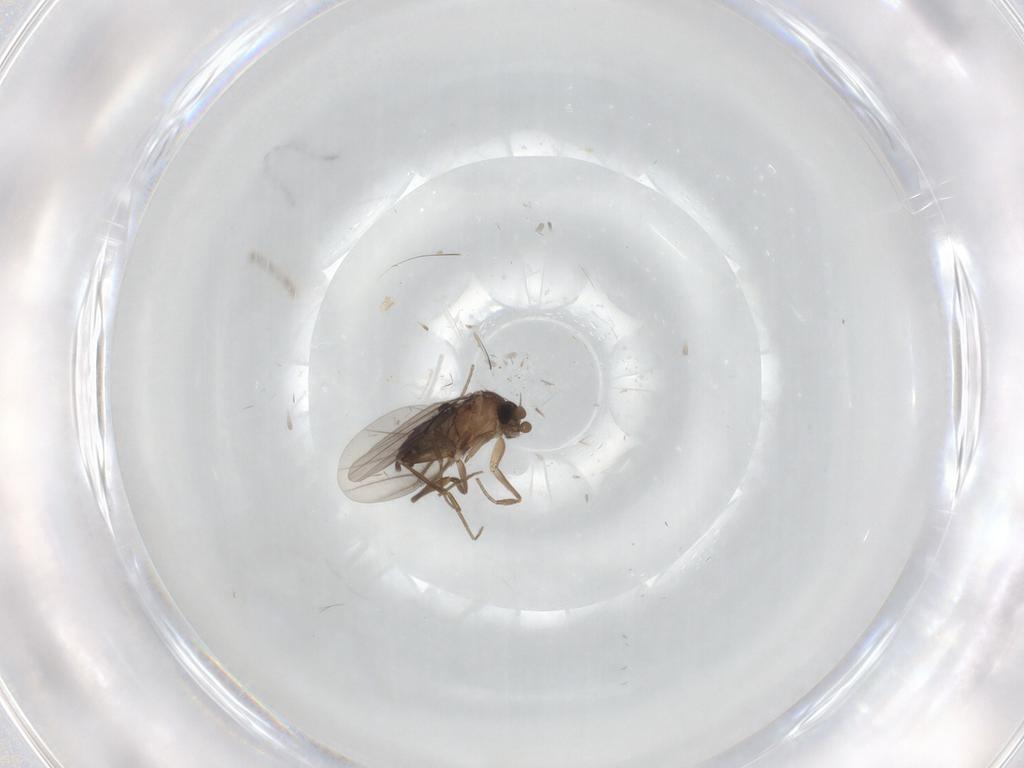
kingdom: Animalia
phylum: Arthropoda
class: Insecta
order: Diptera
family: Phoridae
